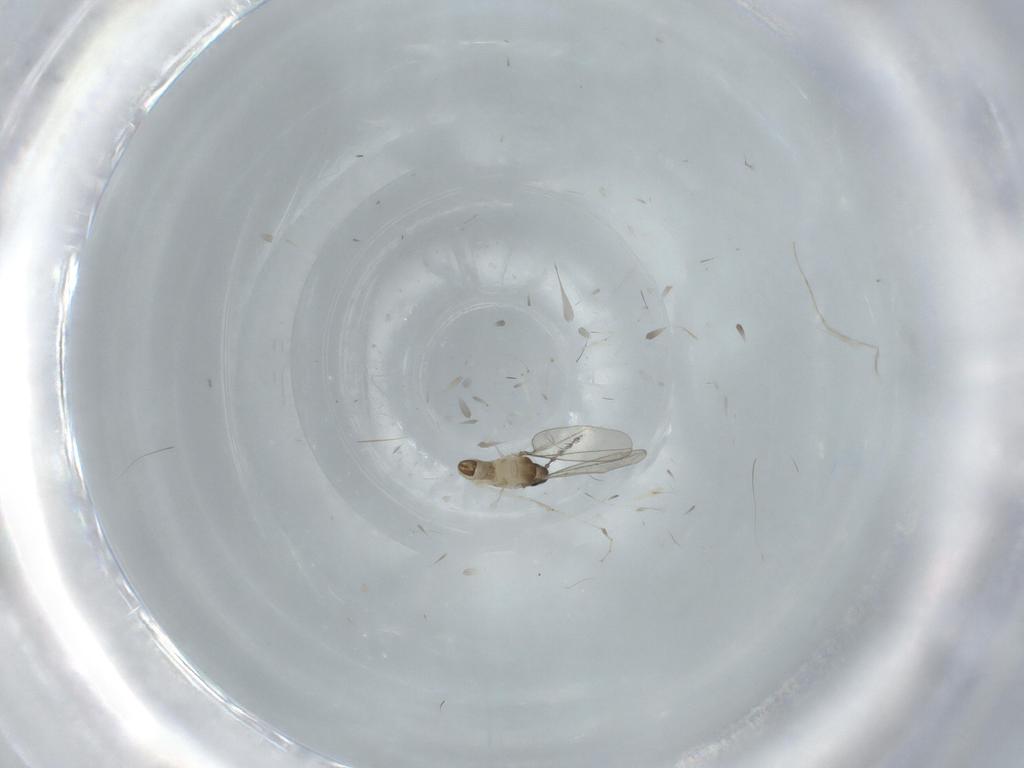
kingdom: Animalia
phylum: Arthropoda
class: Insecta
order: Diptera
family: Cecidomyiidae
